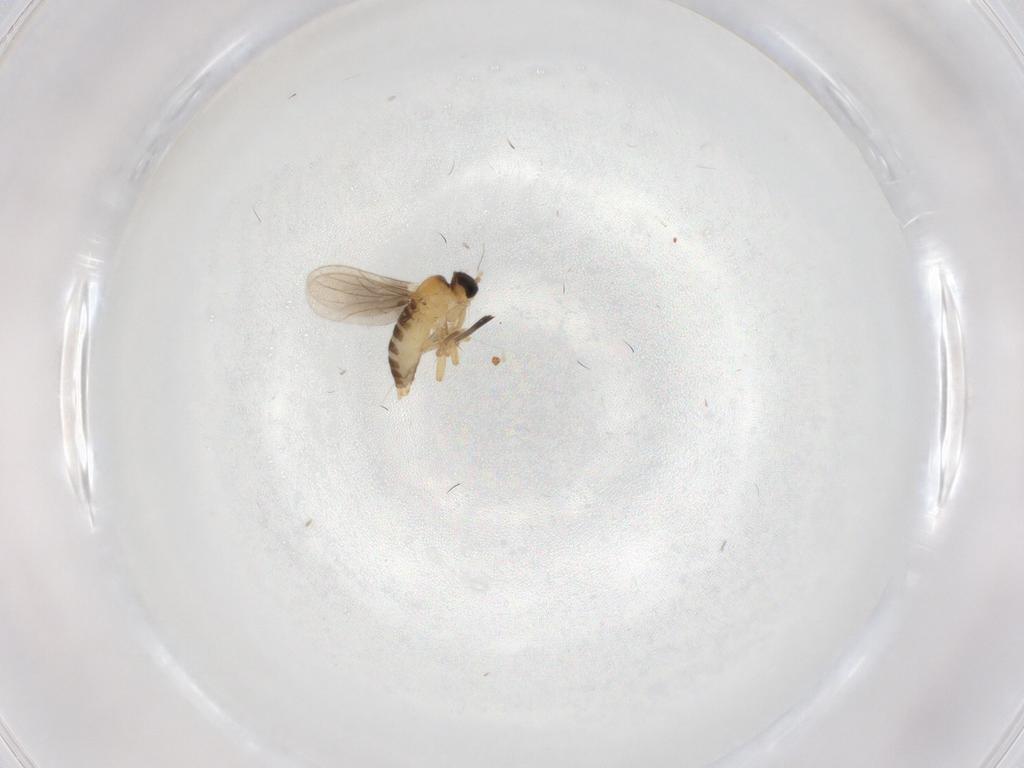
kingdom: Animalia
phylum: Arthropoda
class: Insecta
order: Diptera
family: Hybotidae
